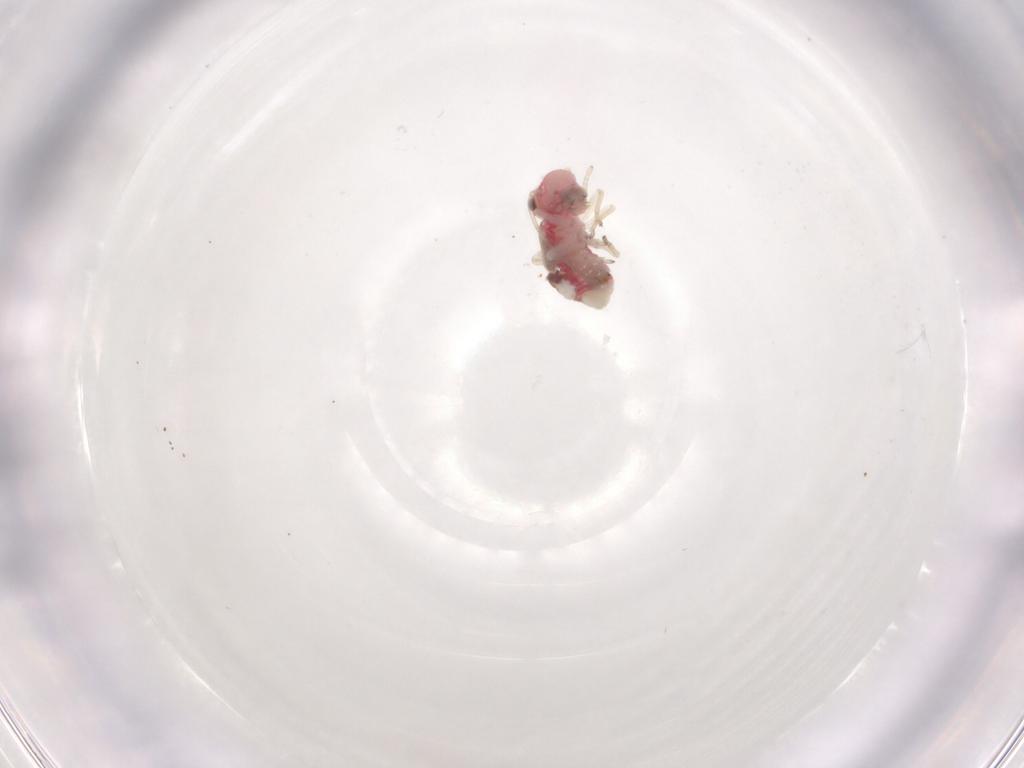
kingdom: Animalia
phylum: Arthropoda
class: Insecta
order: Psocodea
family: Caeciliusidae
